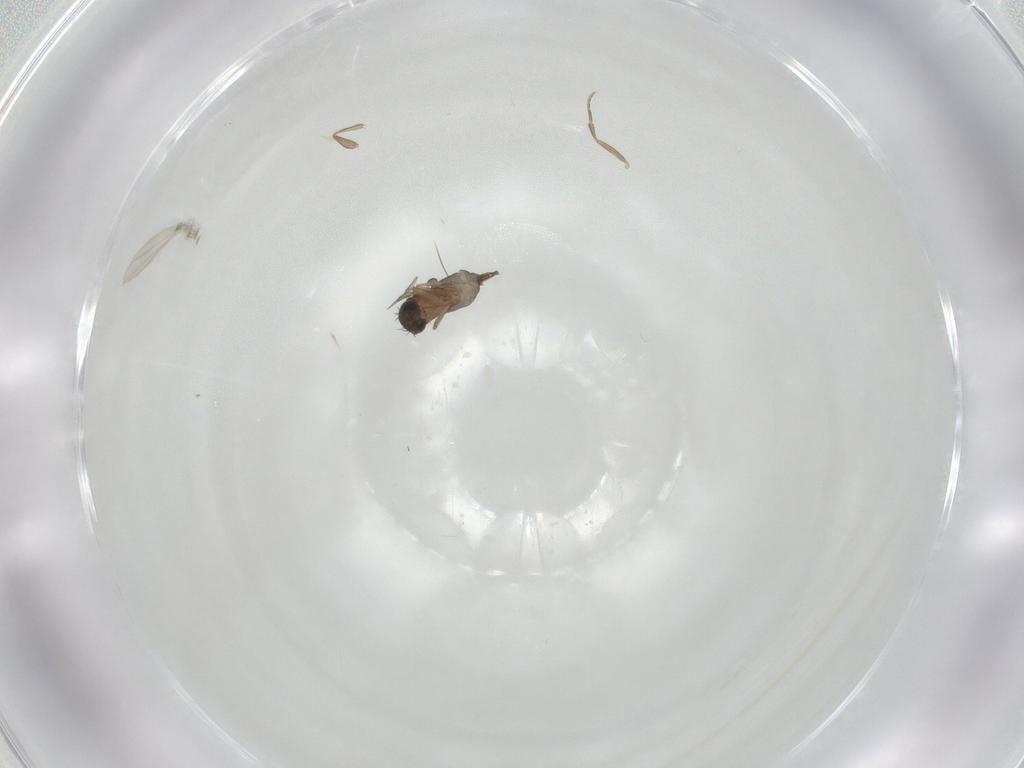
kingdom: Animalia
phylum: Arthropoda
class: Insecta
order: Diptera
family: Phoridae
